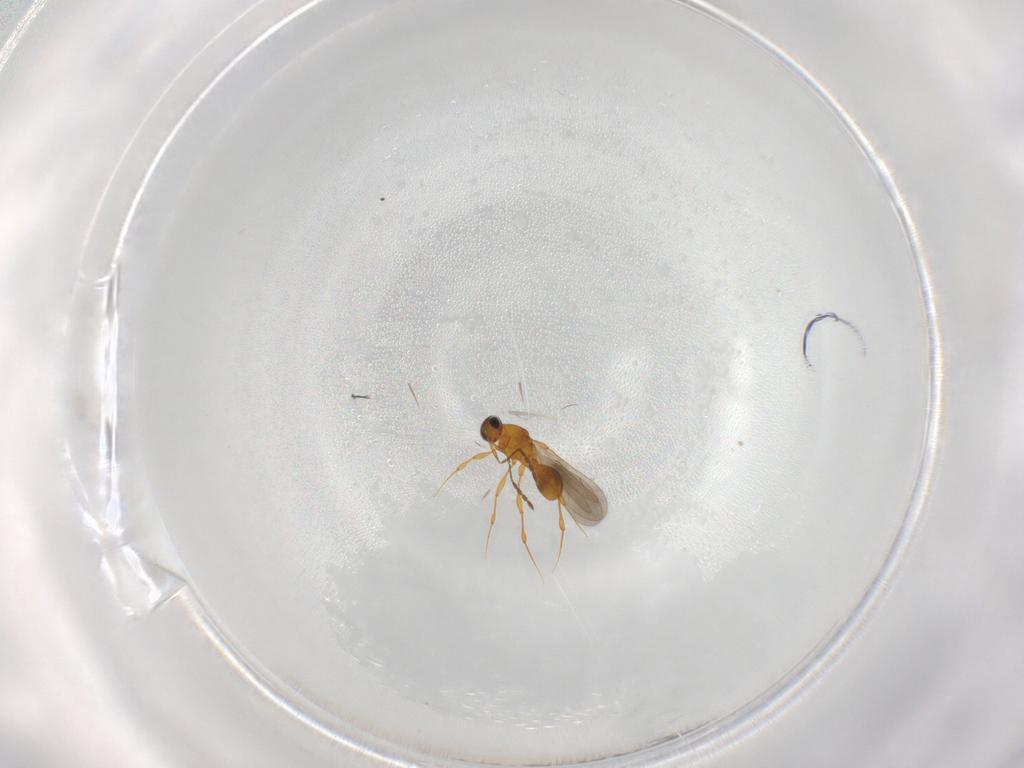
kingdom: Animalia
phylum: Arthropoda
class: Insecta
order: Hymenoptera
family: Platygastridae
